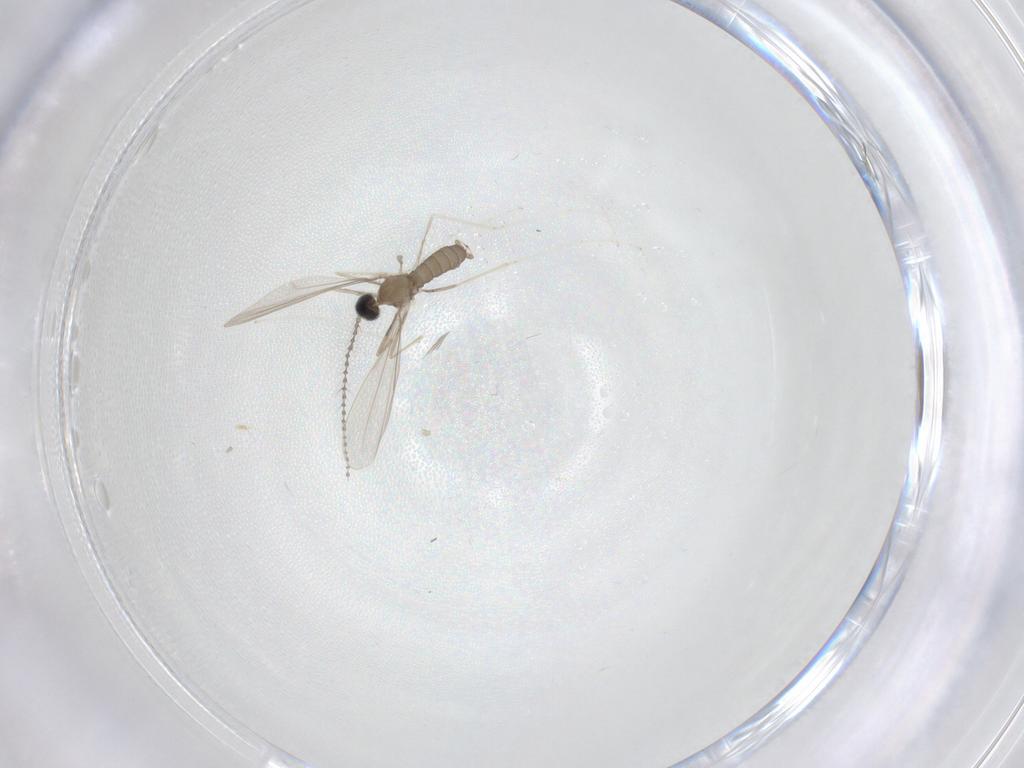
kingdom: Animalia
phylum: Arthropoda
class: Insecta
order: Diptera
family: Cecidomyiidae
